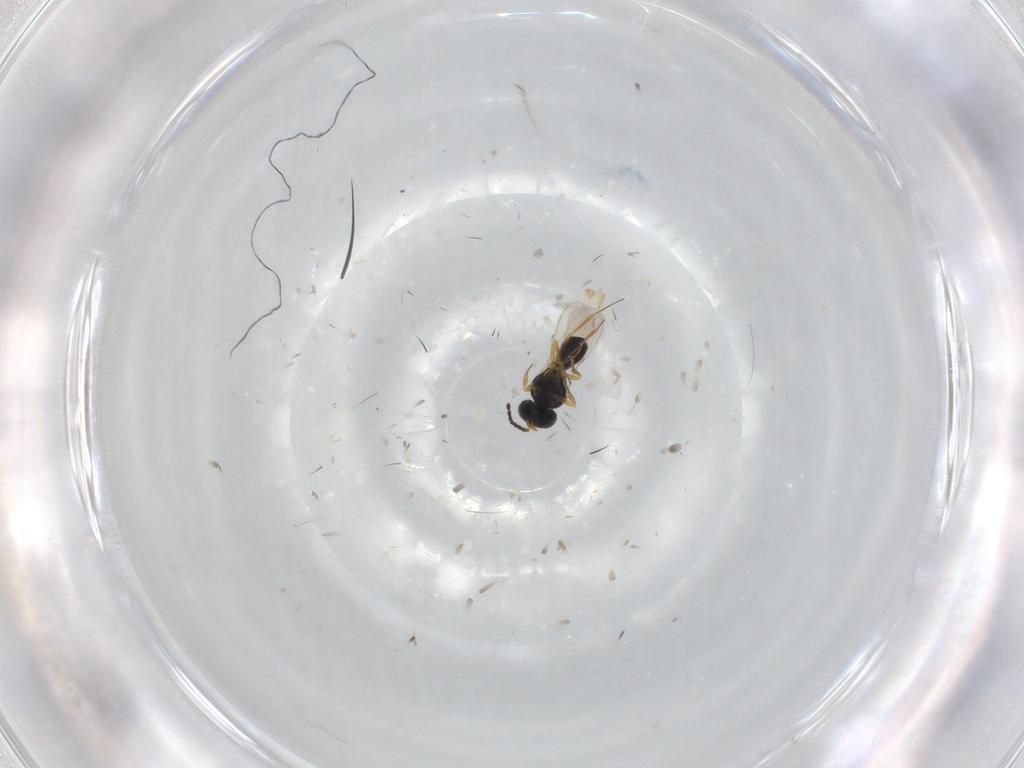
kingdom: Animalia
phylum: Arthropoda
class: Insecta
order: Hymenoptera
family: Scelionidae
